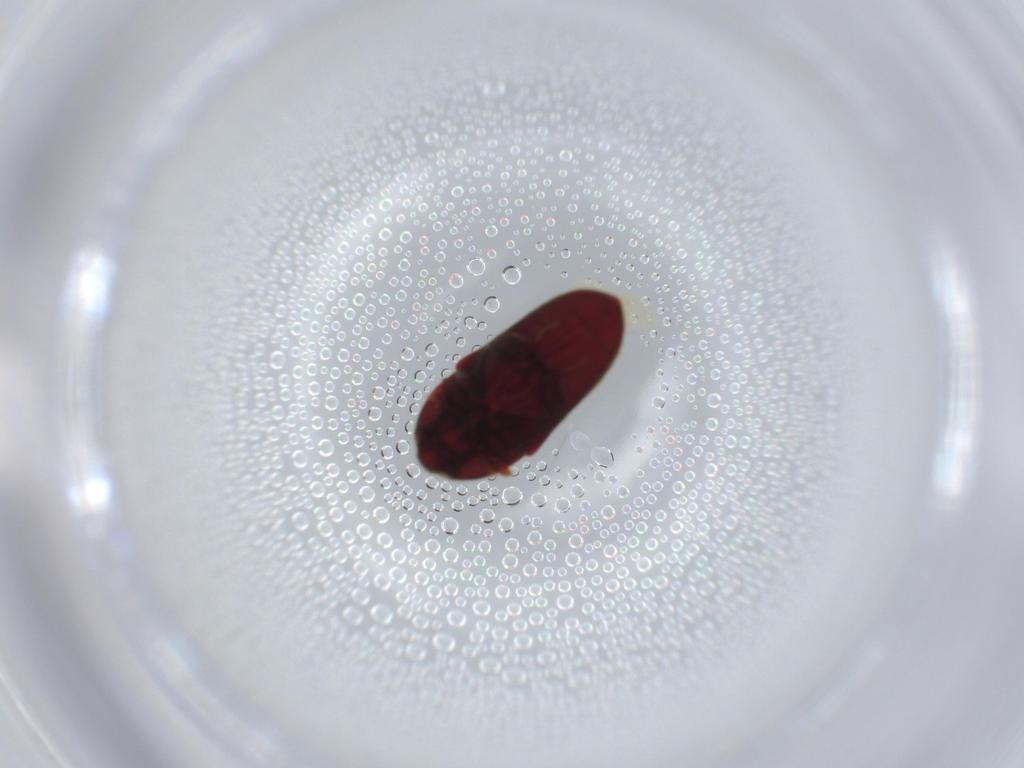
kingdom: Animalia
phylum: Arthropoda
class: Insecta
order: Coleoptera
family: Throscidae
